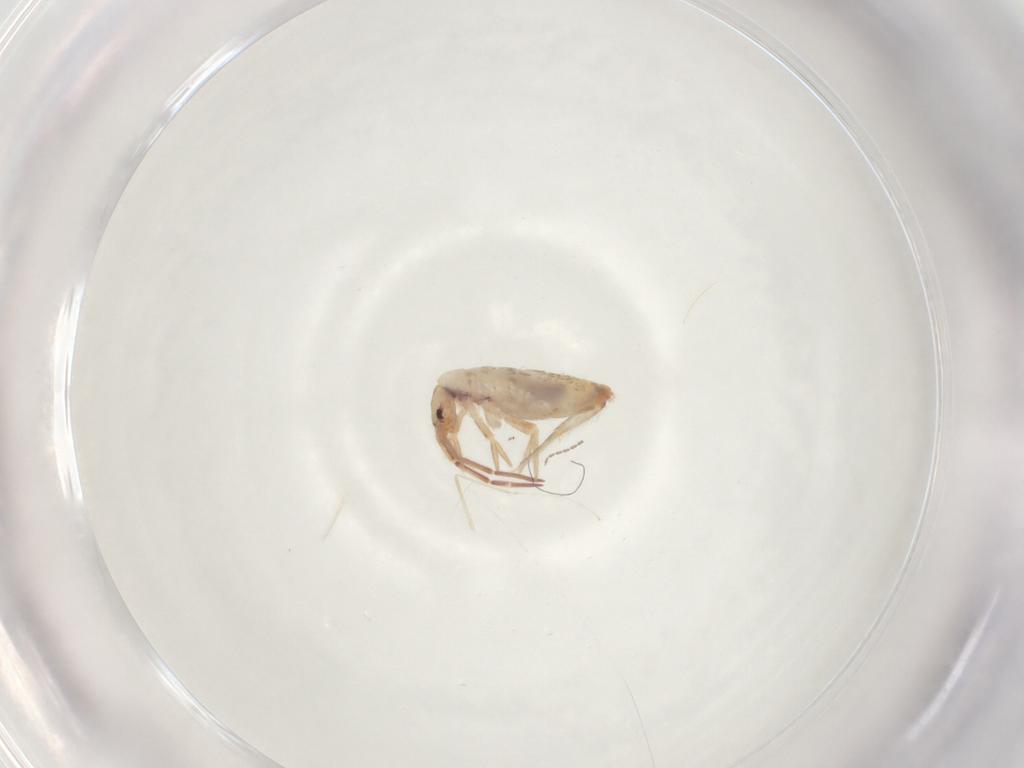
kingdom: Animalia
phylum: Arthropoda
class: Collembola
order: Entomobryomorpha
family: Entomobryidae
